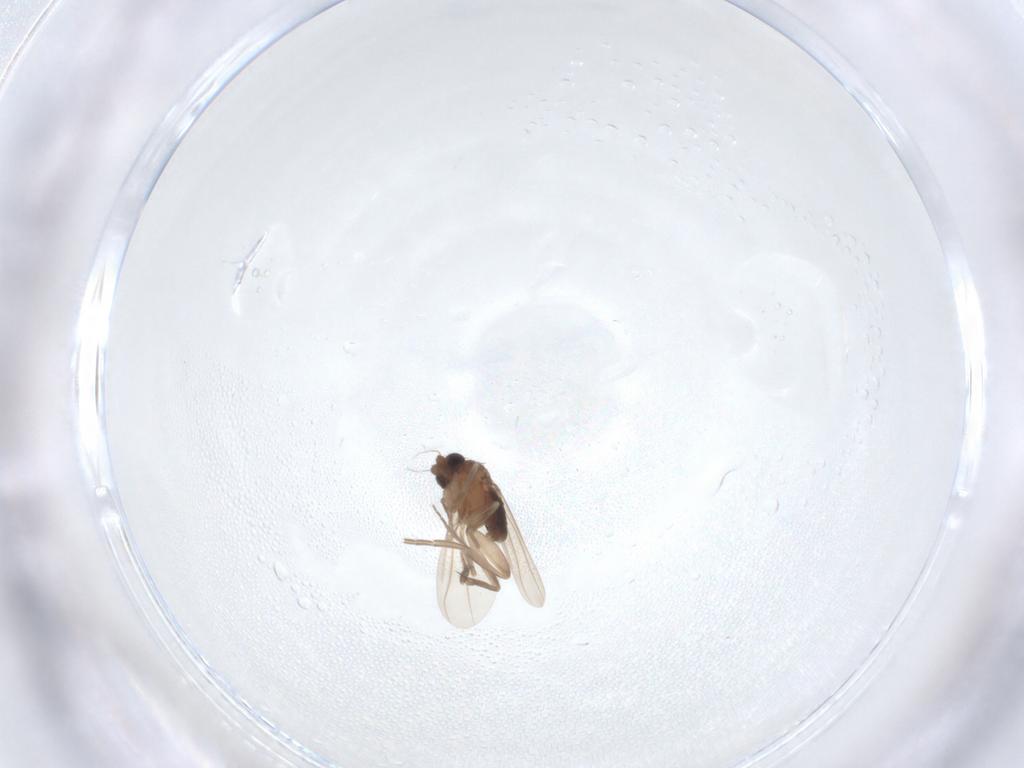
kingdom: Animalia
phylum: Arthropoda
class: Insecta
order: Diptera
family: Phoridae
